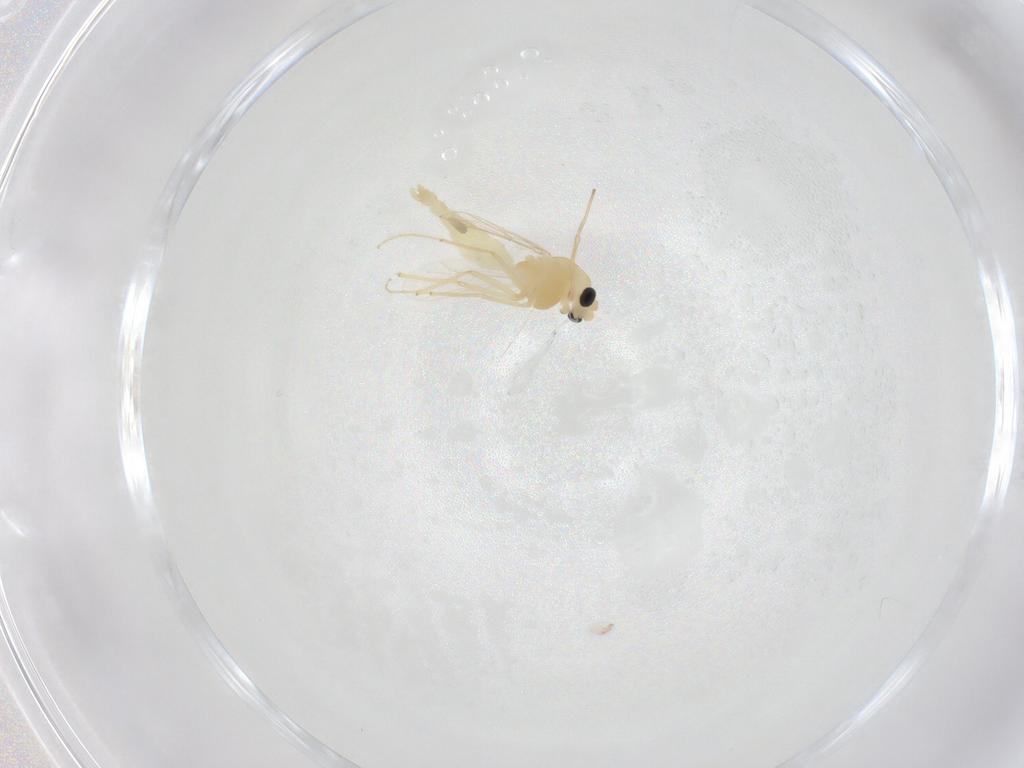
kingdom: Animalia
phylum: Arthropoda
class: Insecta
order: Diptera
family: Chironomidae
